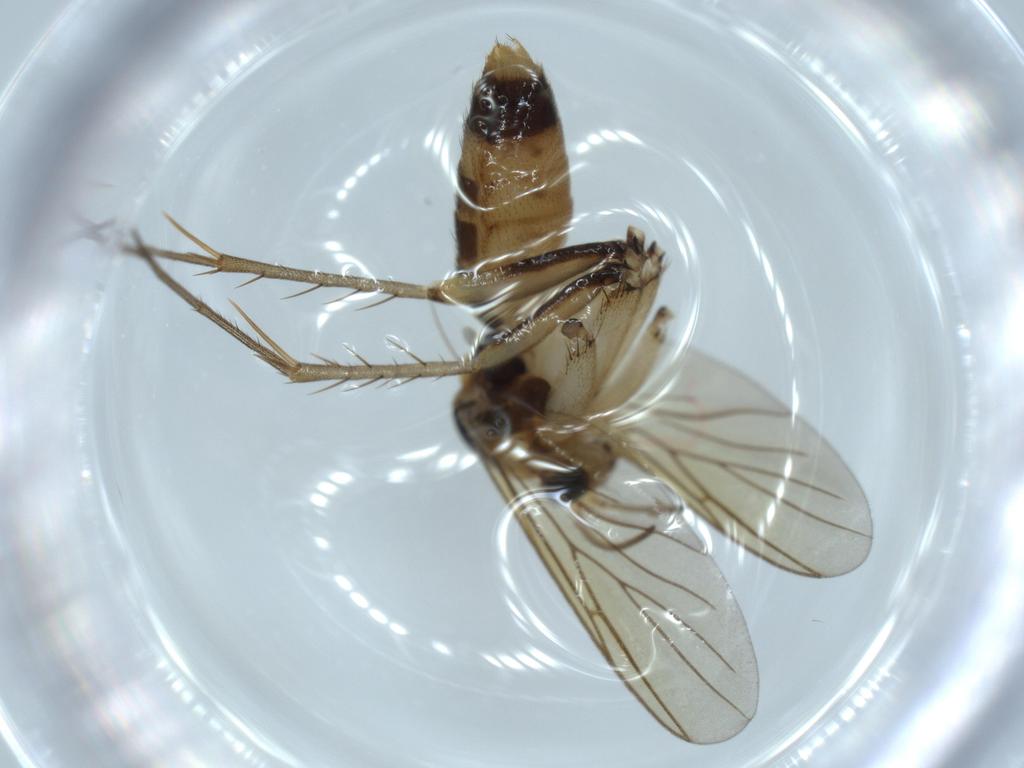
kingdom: Animalia
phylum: Arthropoda
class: Insecta
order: Diptera
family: Mycetophilidae
